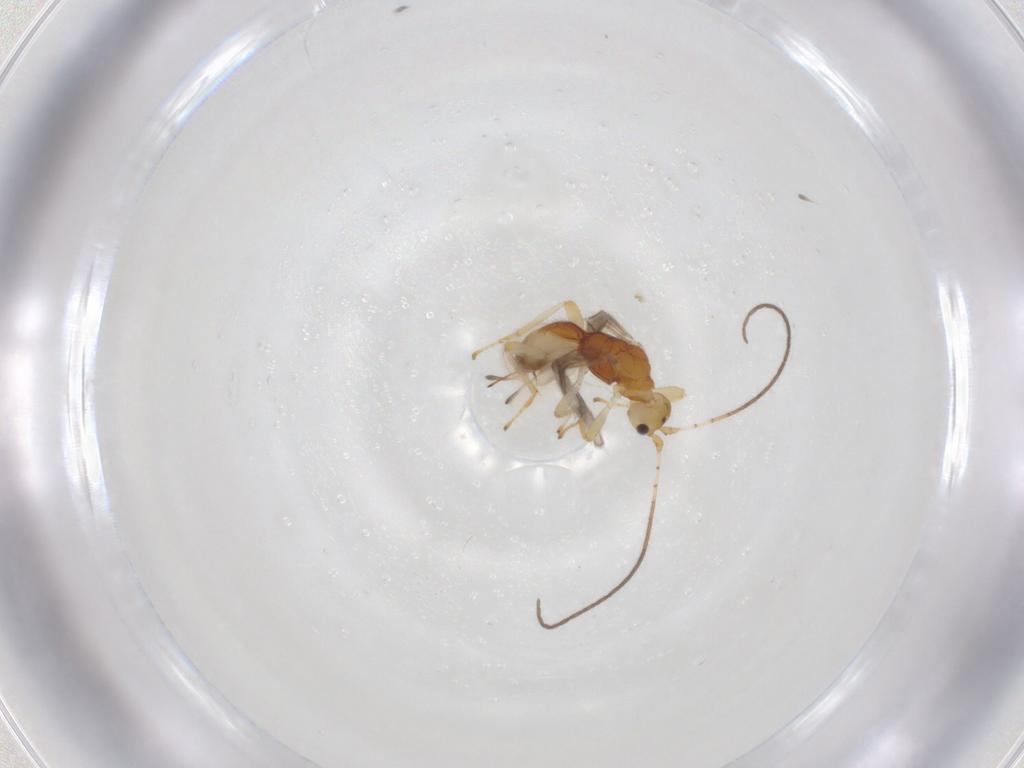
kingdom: Animalia
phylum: Arthropoda
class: Insecta
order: Hymenoptera
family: Braconidae
